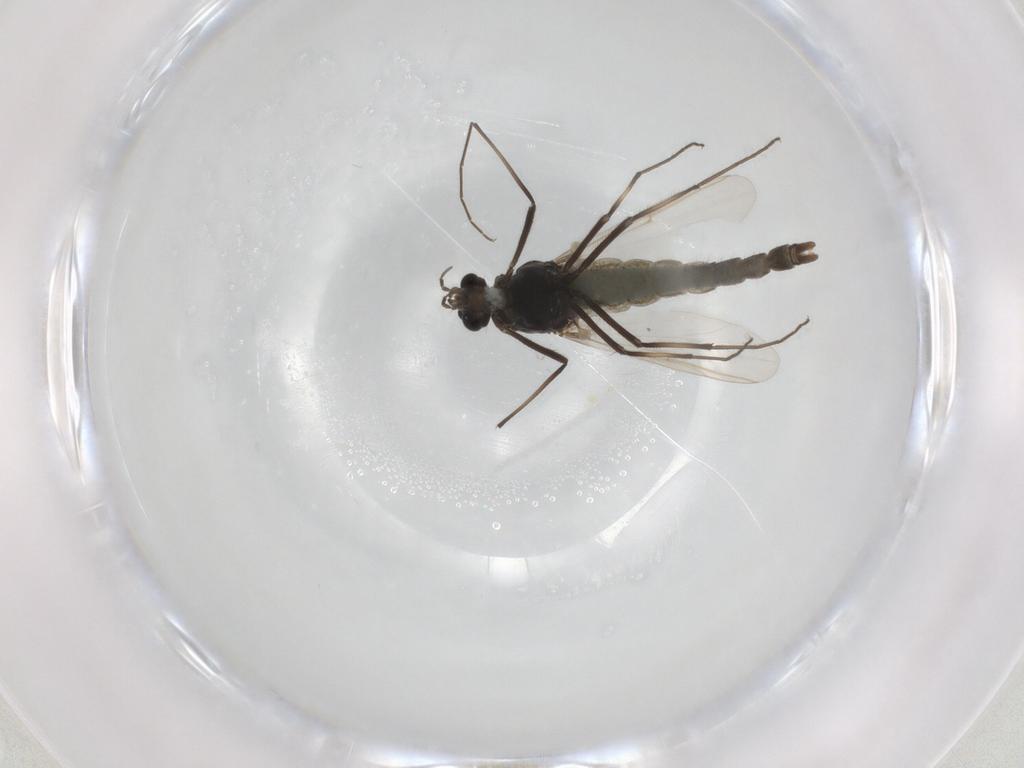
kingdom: Animalia
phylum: Arthropoda
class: Insecta
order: Diptera
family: Chironomidae
